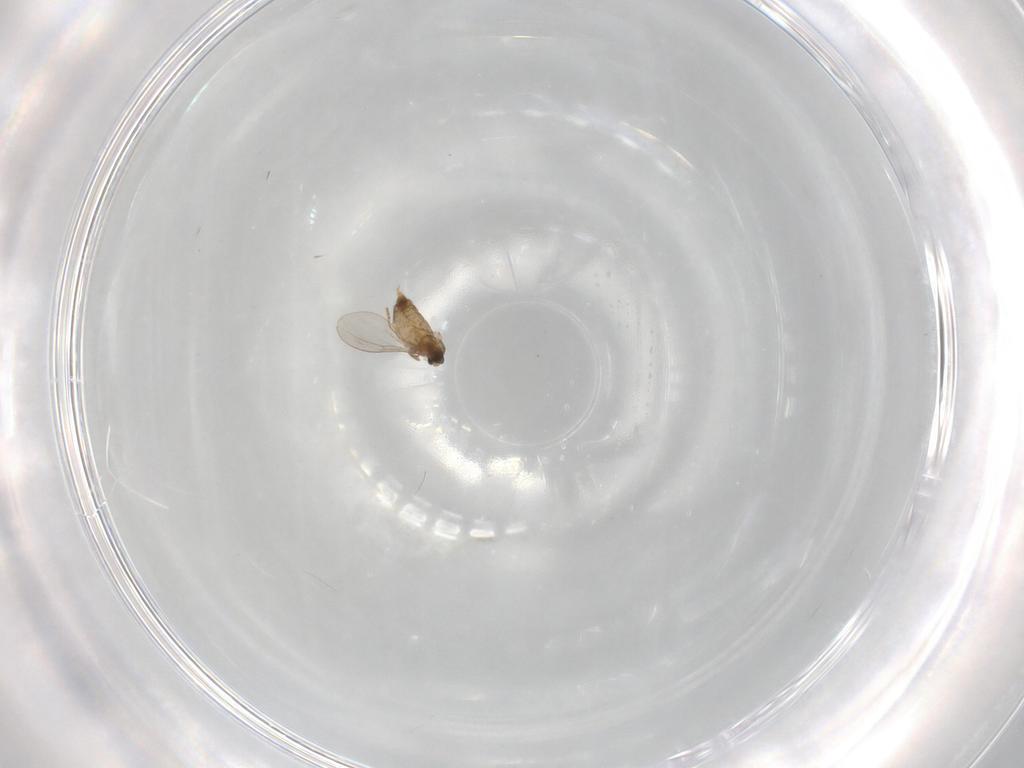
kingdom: Animalia
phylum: Arthropoda
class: Insecta
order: Diptera
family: Cecidomyiidae
